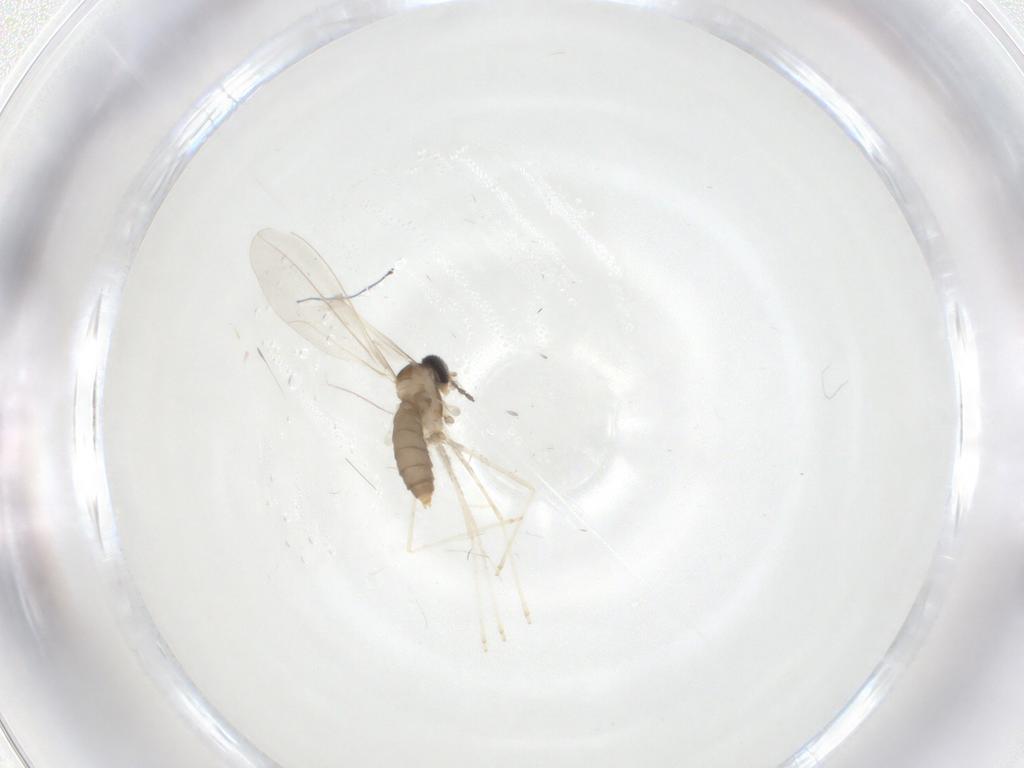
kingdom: Animalia
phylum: Arthropoda
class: Insecta
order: Diptera
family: Cecidomyiidae
